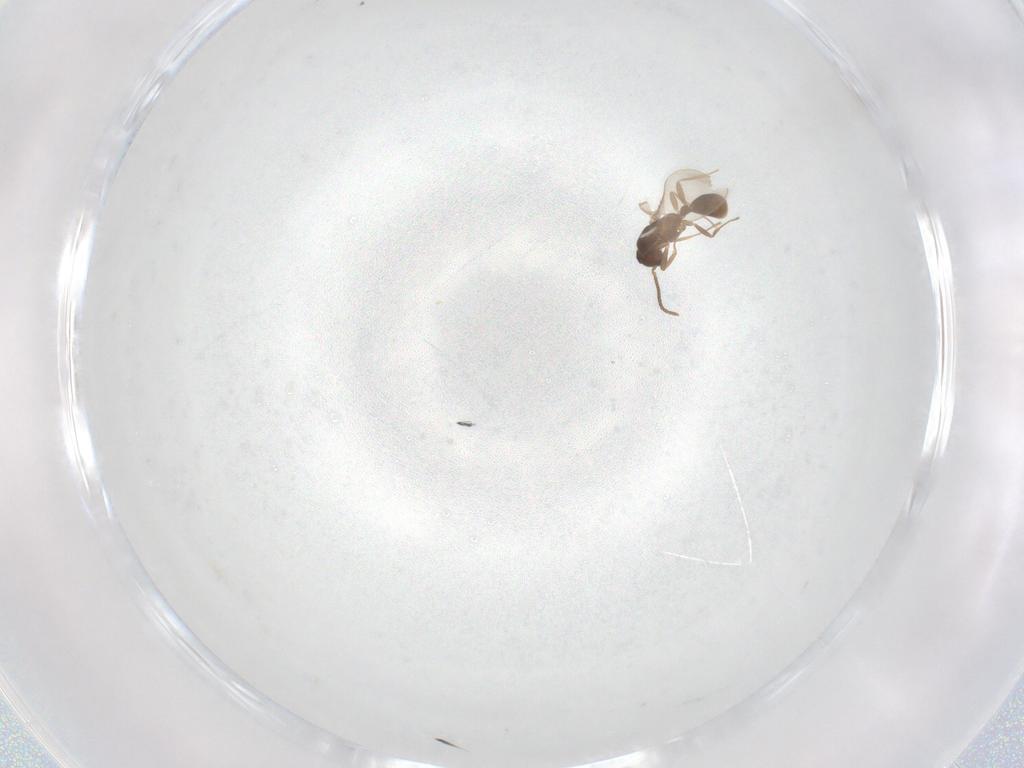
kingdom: Animalia
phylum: Arthropoda
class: Insecta
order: Hymenoptera
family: Formicidae
